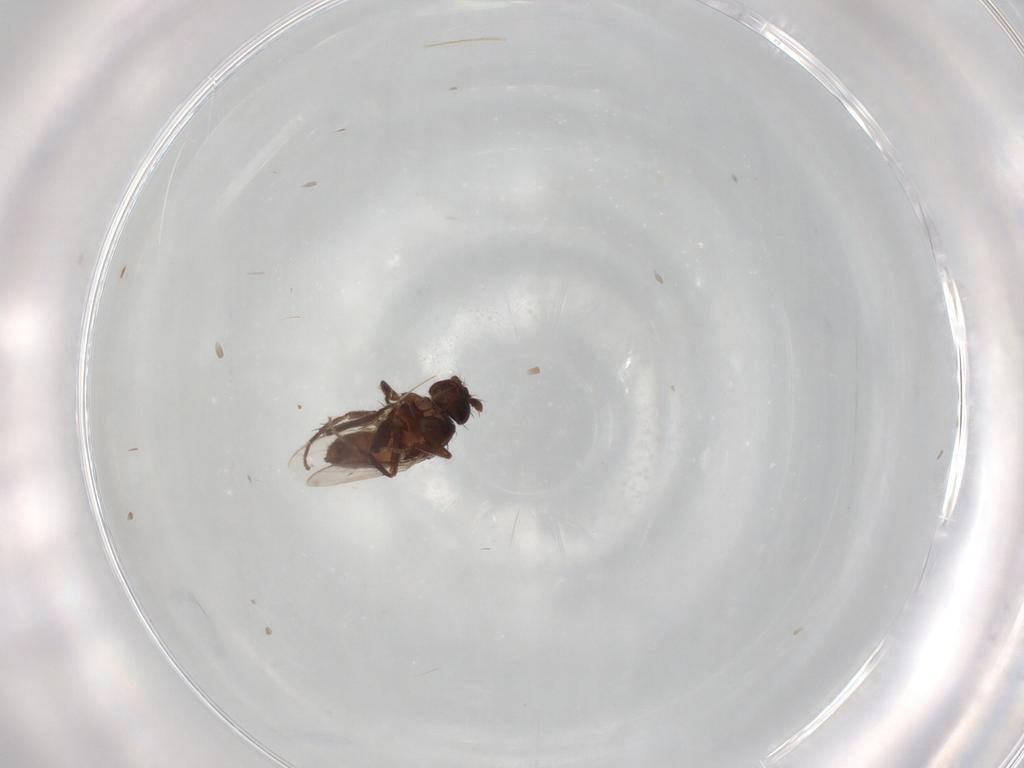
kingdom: Animalia
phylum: Arthropoda
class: Insecta
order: Diptera
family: Sphaeroceridae
